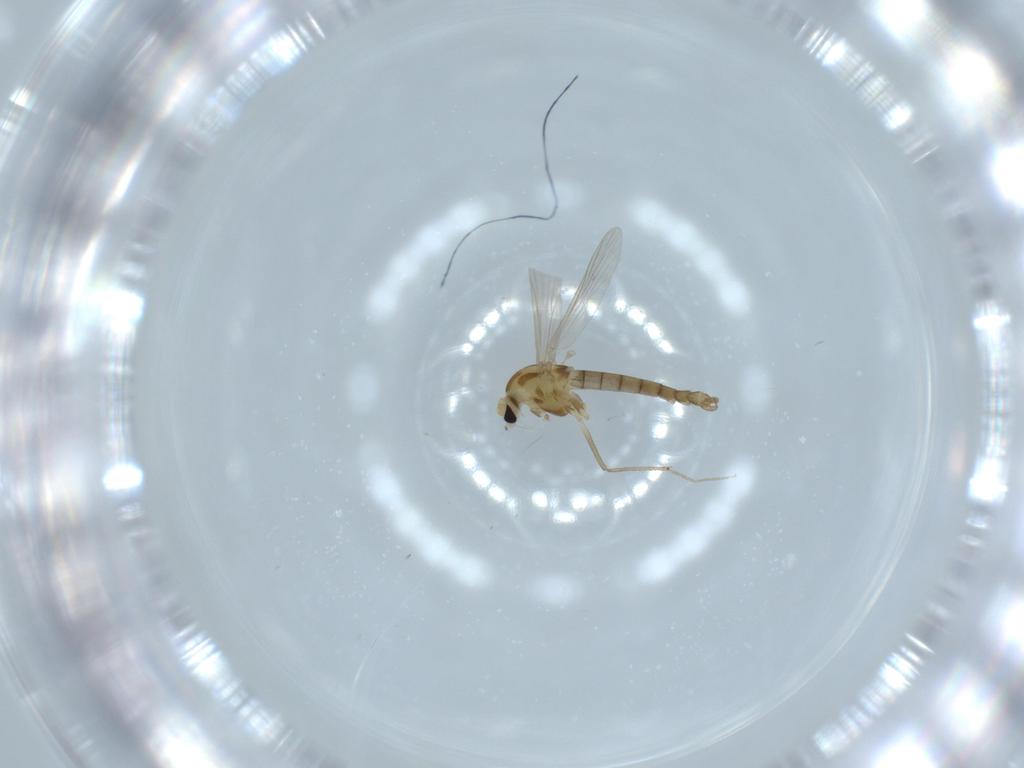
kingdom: Animalia
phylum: Arthropoda
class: Insecta
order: Diptera
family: Chironomidae
